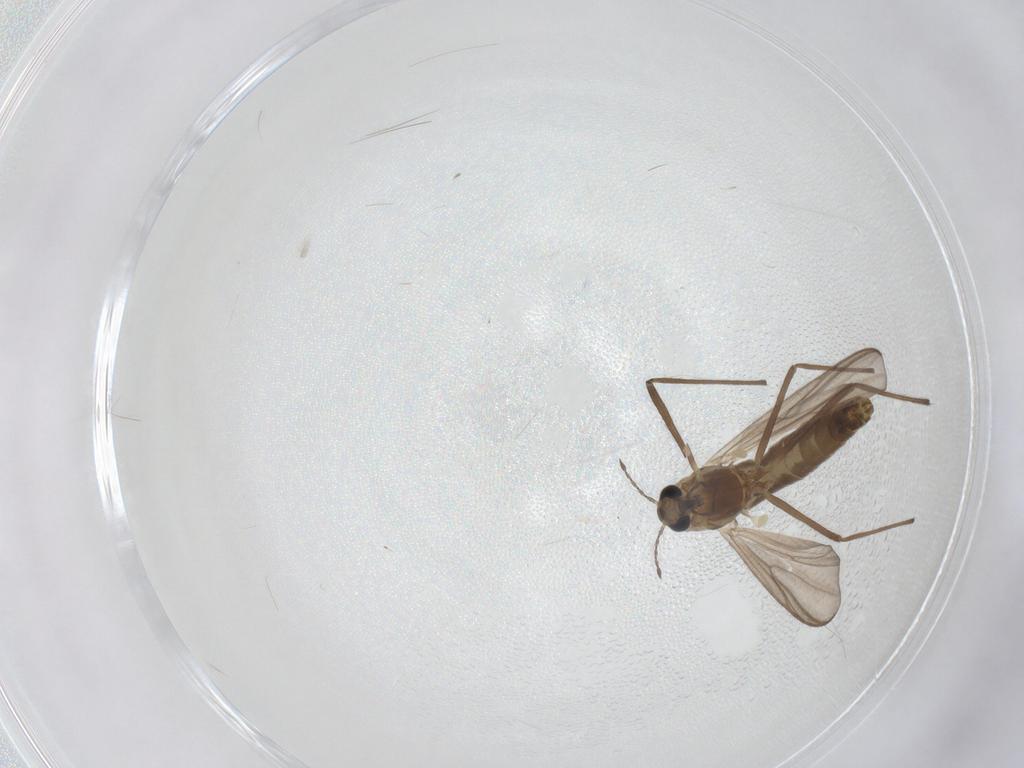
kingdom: Animalia
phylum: Arthropoda
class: Insecta
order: Diptera
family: Chironomidae
